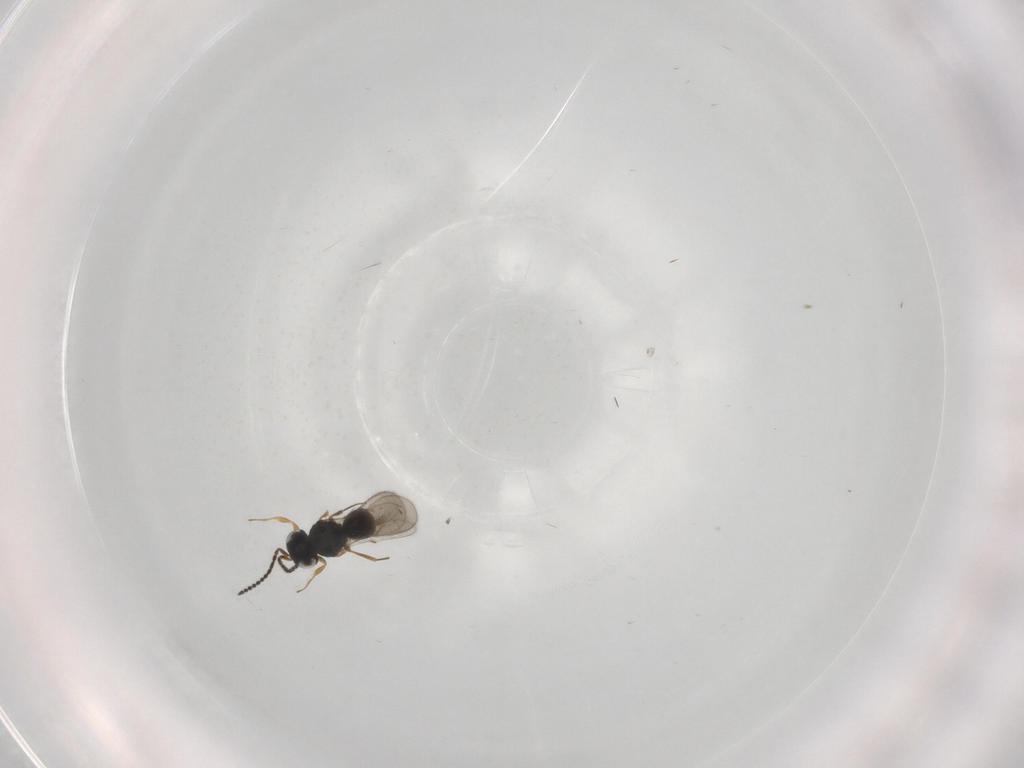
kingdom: Animalia
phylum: Arthropoda
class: Insecta
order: Hymenoptera
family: Scelionidae
